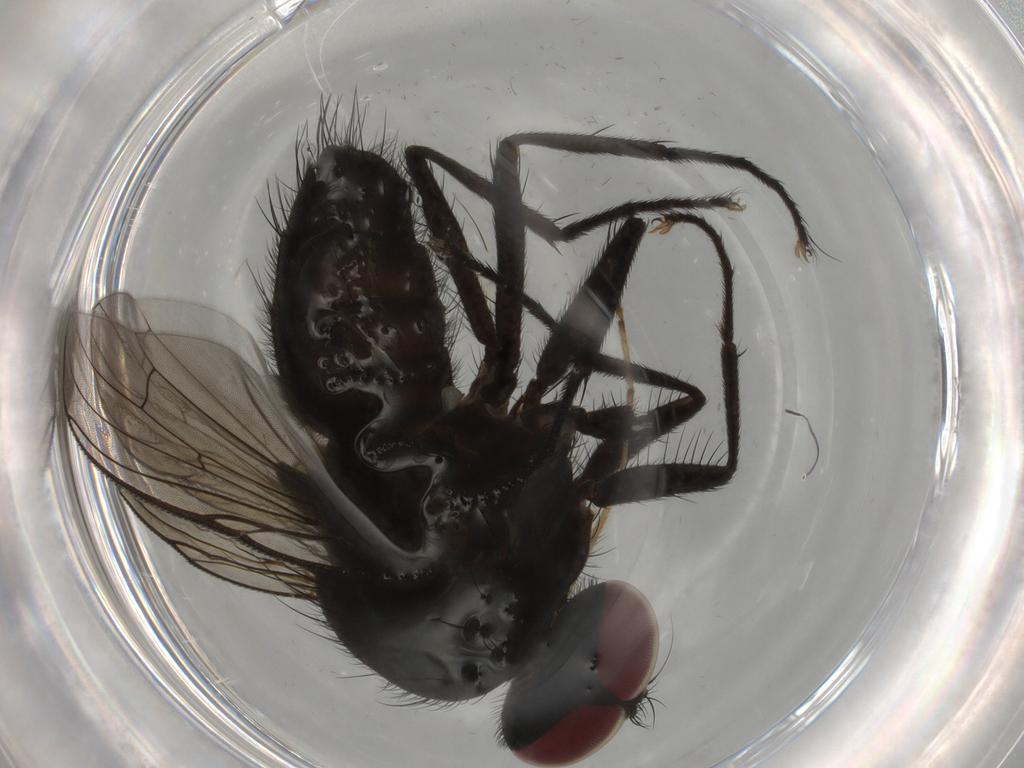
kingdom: Animalia
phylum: Arthropoda
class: Insecta
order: Diptera
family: Muscidae
